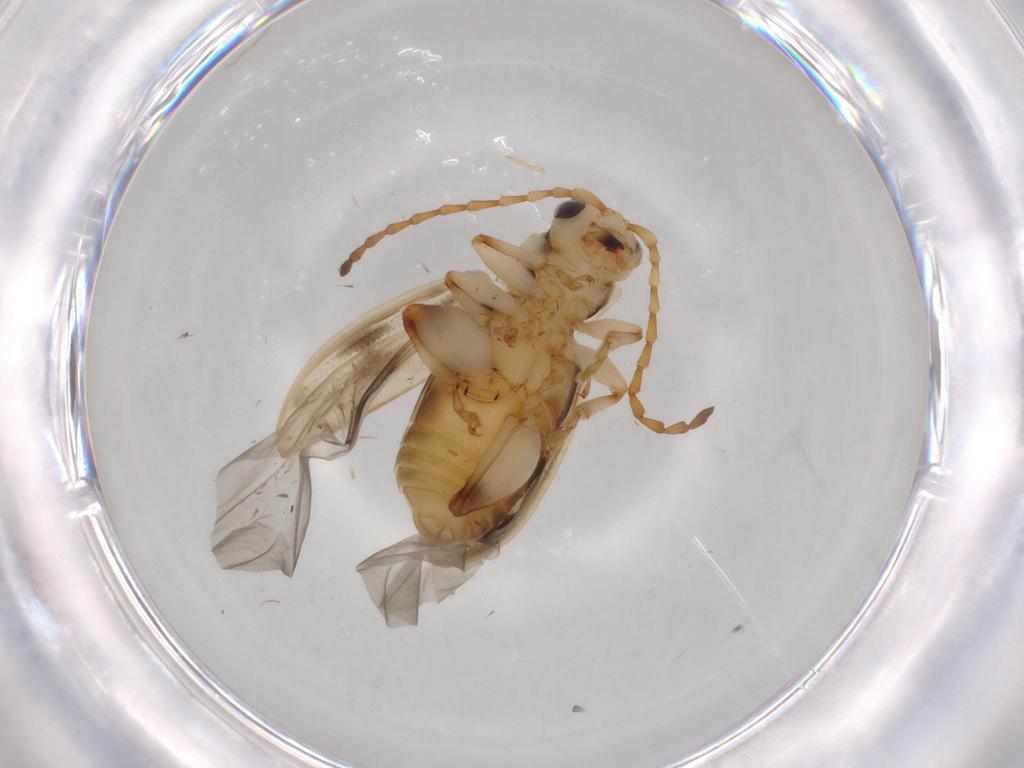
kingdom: Animalia
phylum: Arthropoda
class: Insecta
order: Coleoptera
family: Chrysomelidae
